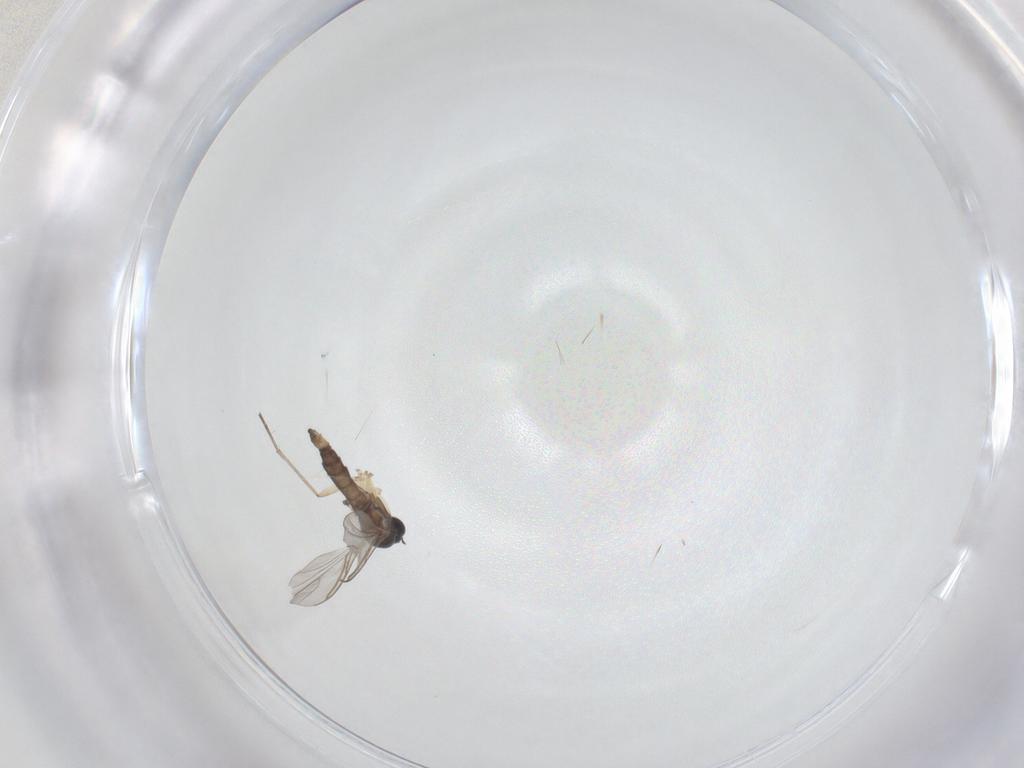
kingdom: Animalia
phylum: Arthropoda
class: Insecta
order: Diptera
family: Sciaridae
